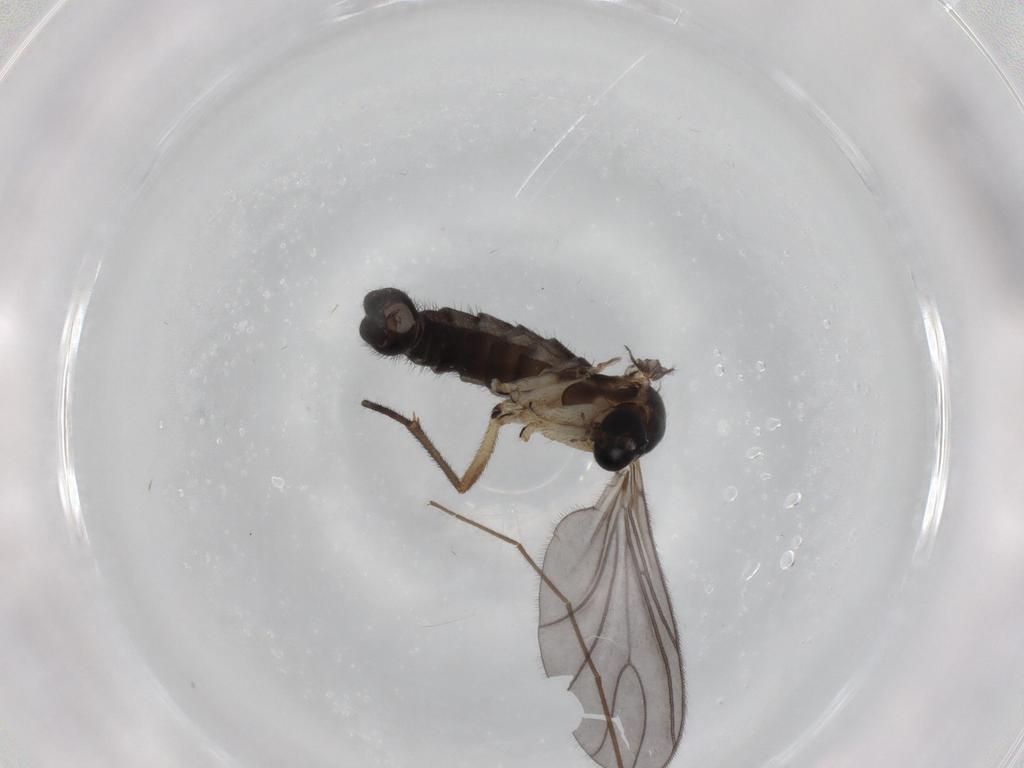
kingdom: Animalia
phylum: Arthropoda
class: Insecta
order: Diptera
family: Sciaridae
